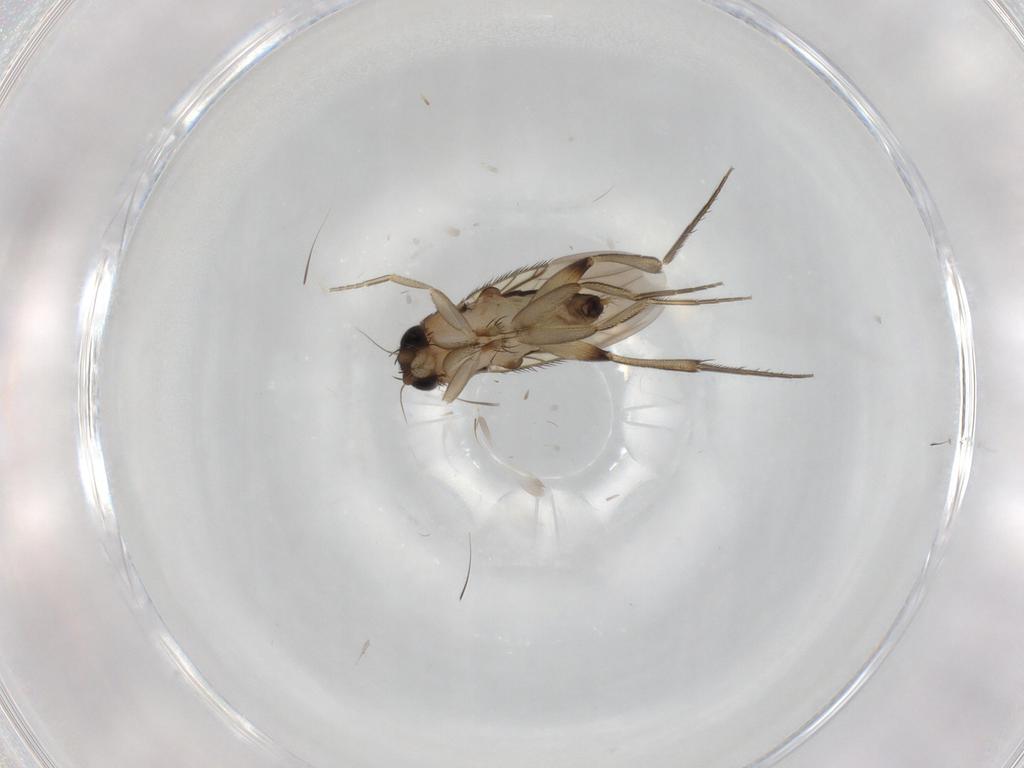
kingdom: Animalia
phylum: Arthropoda
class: Insecta
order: Diptera
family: Phoridae
